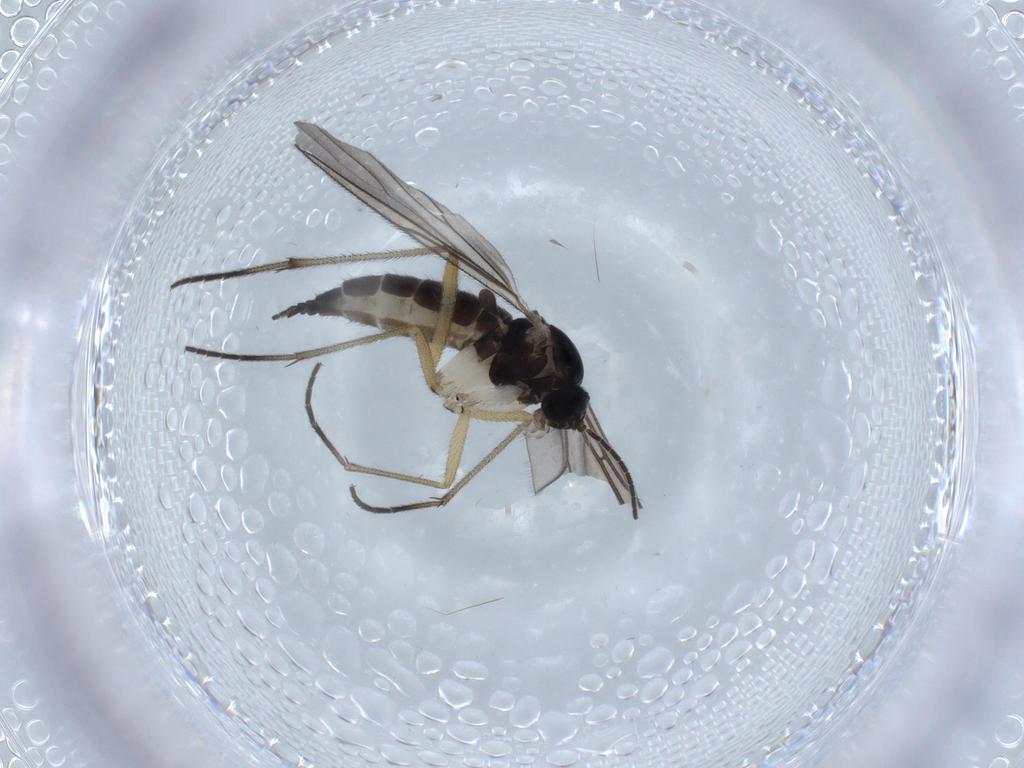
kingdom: Animalia
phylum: Arthropoda
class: Insecta
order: Diptera
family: Sciaridae
